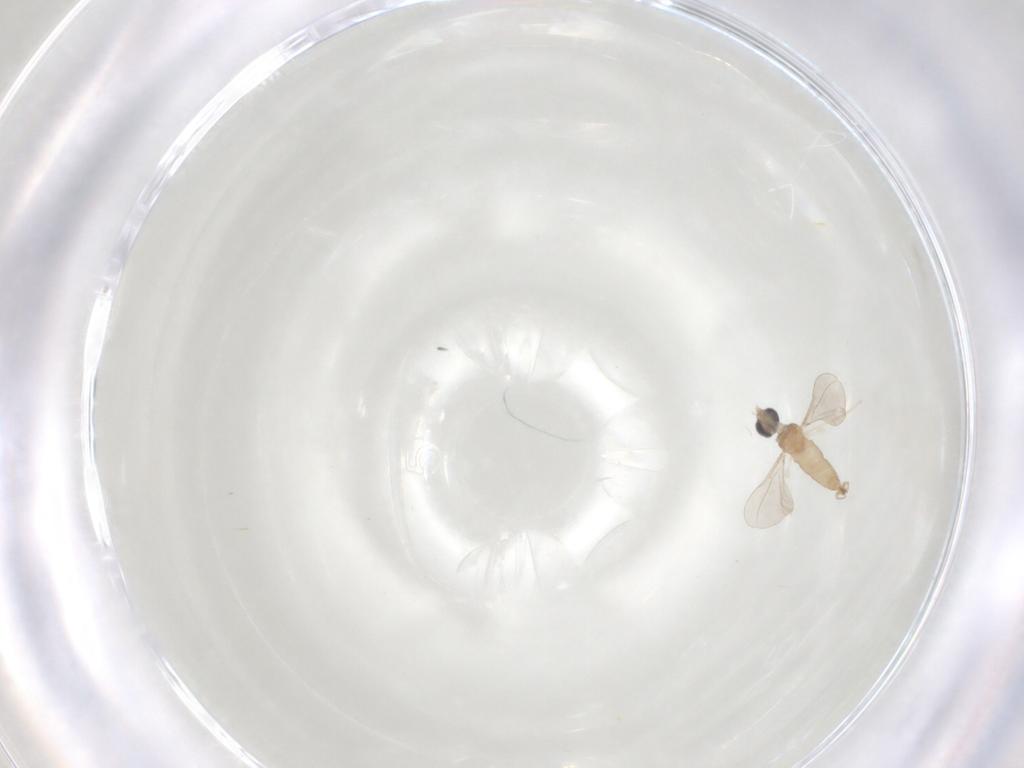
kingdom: Animalia
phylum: Arthropoda
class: Insecta
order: Diptera
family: Cecidomyiidae
